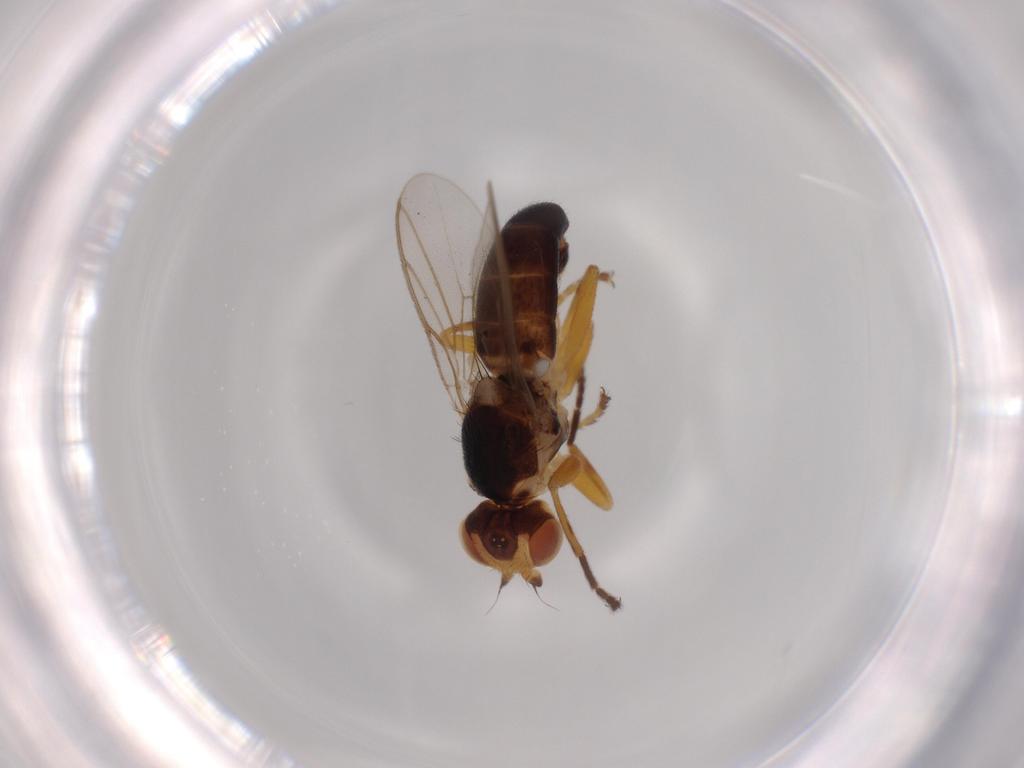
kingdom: Animalia
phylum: Arthropoda
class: Insecta
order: Diptera
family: Chloropidae
